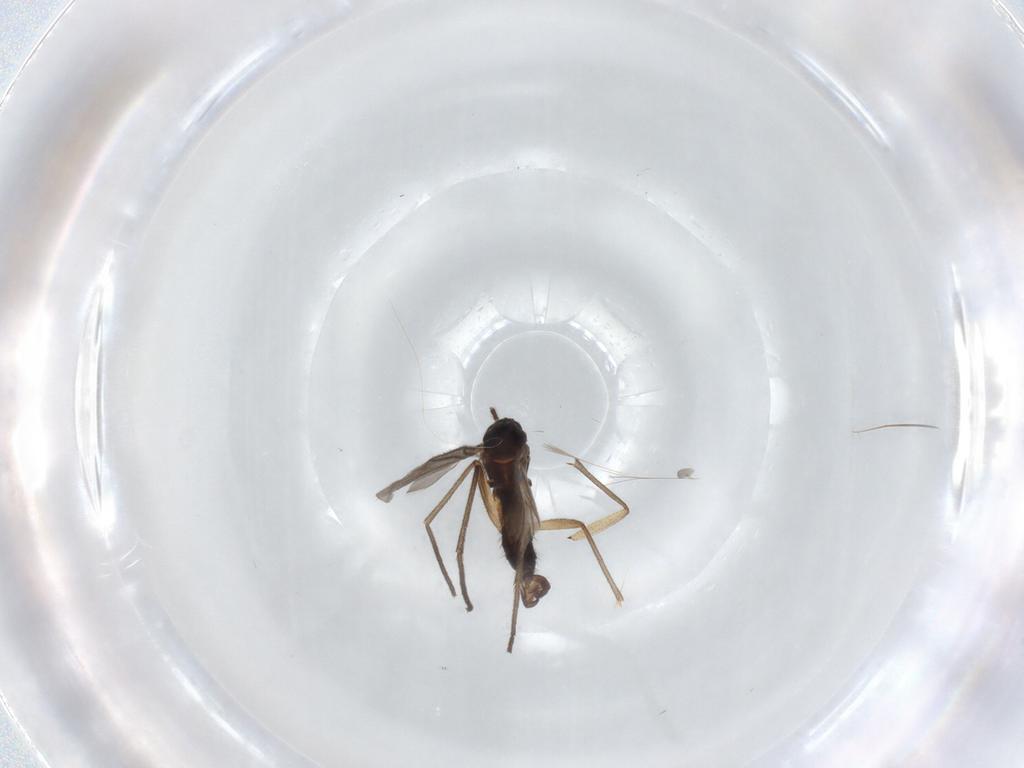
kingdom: Animalia
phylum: Arthropoda
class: Insecta
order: Diptera
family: Sciaridae
